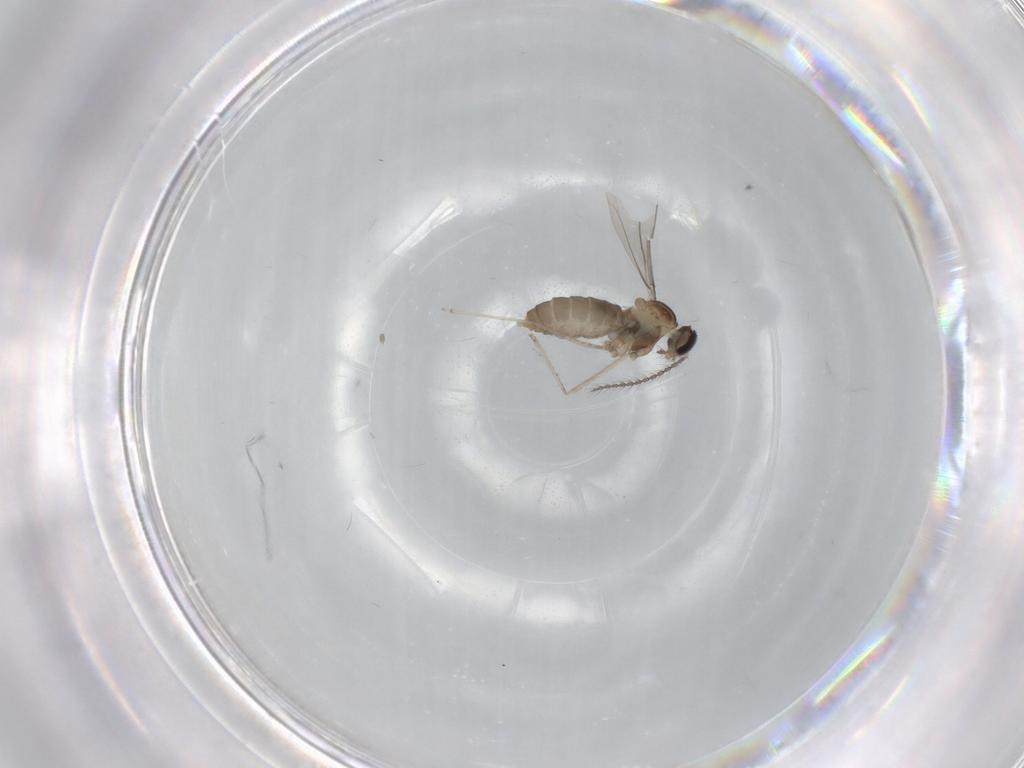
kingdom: Animalia
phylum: Arthropoda
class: Insecta
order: Diptera
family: Cecidomyiidae
